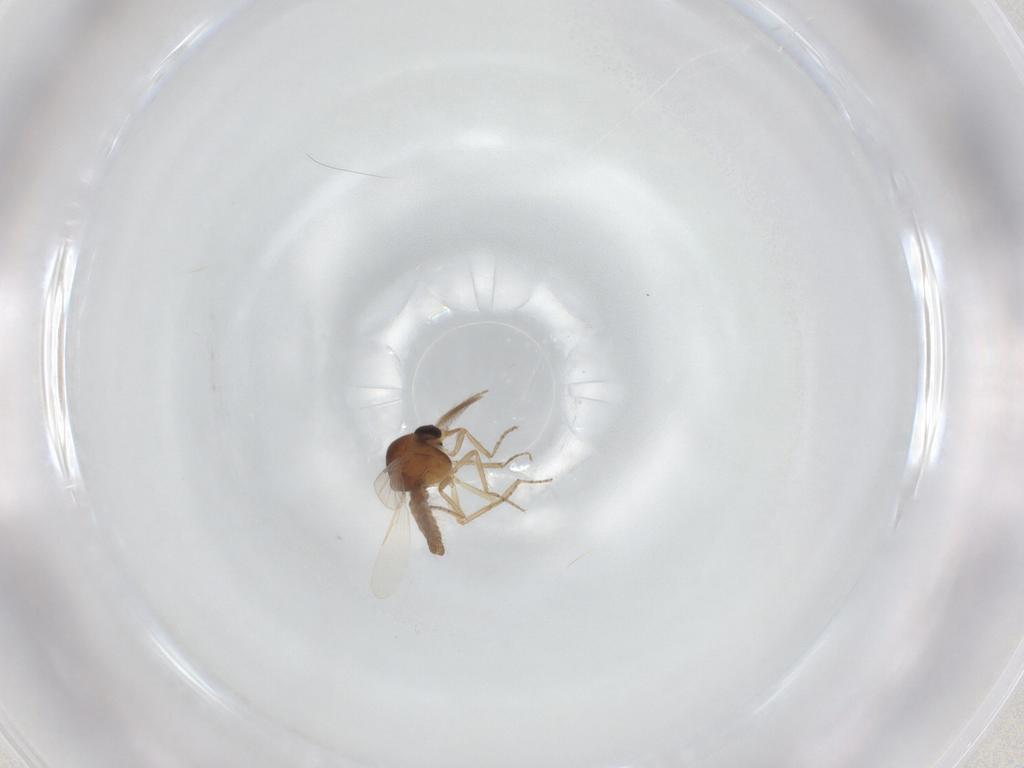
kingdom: Animalia
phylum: Arthropoda
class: Insecta
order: Diptera
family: Ceratopogonidae
